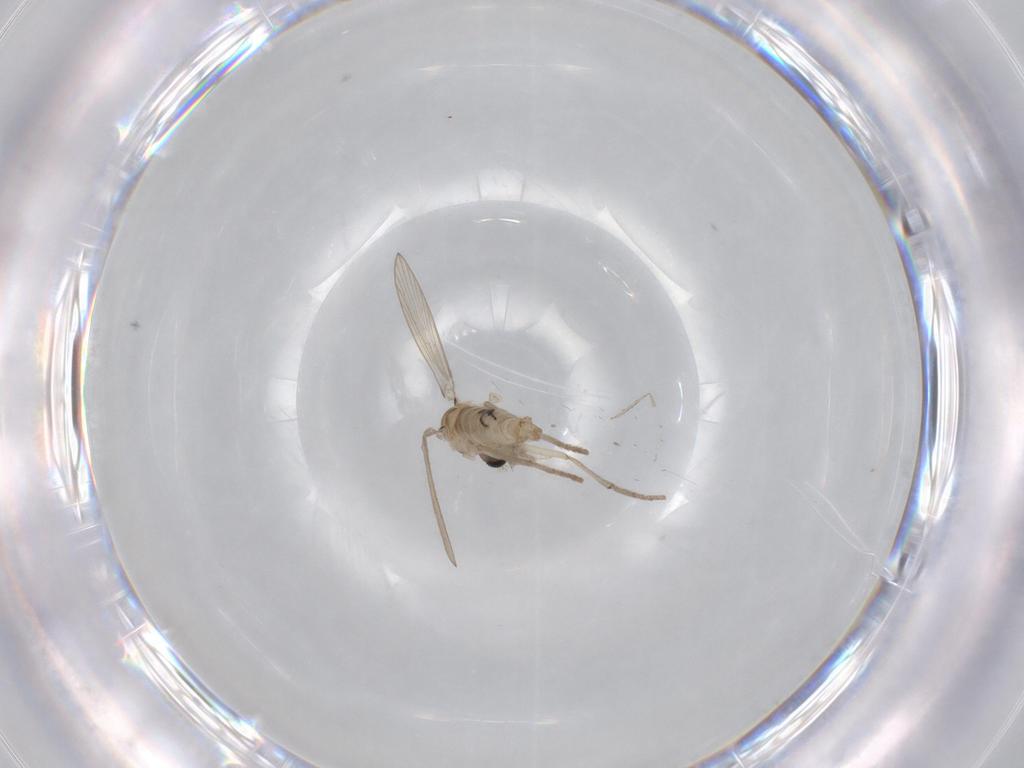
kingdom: Animalia
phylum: Arthropoda
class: Insecta
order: Diptera
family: Psychodidae
